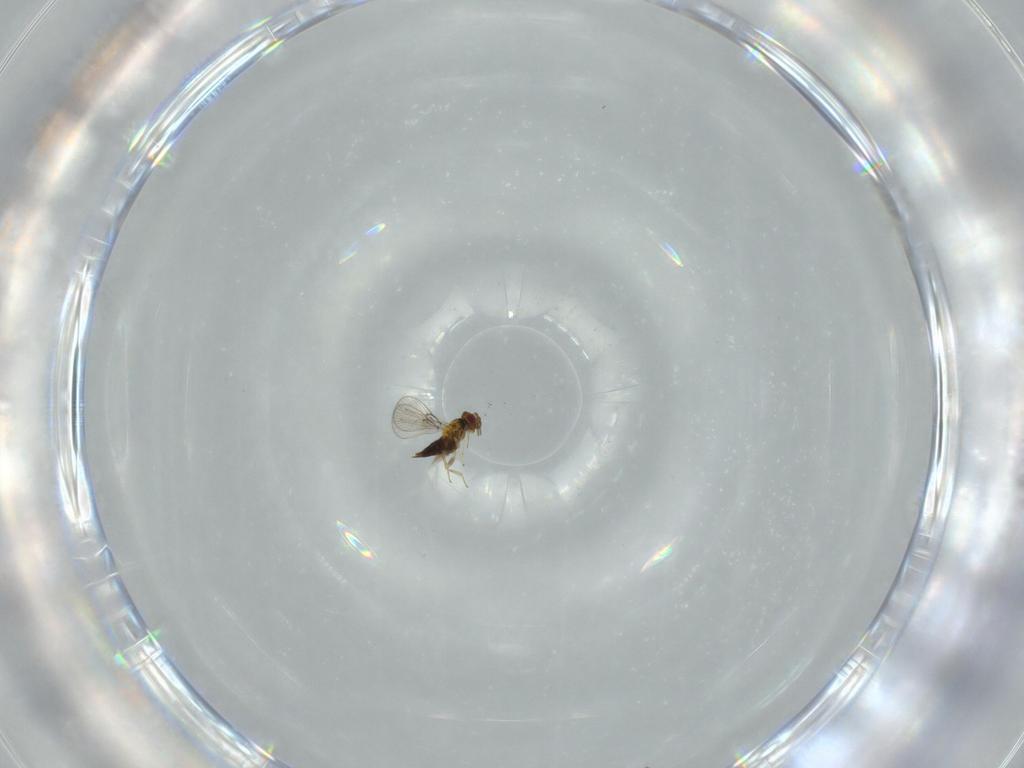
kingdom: Animalia
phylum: Arthropoda
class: Insecta
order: Hymenoptera
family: Trichogrammatidae
